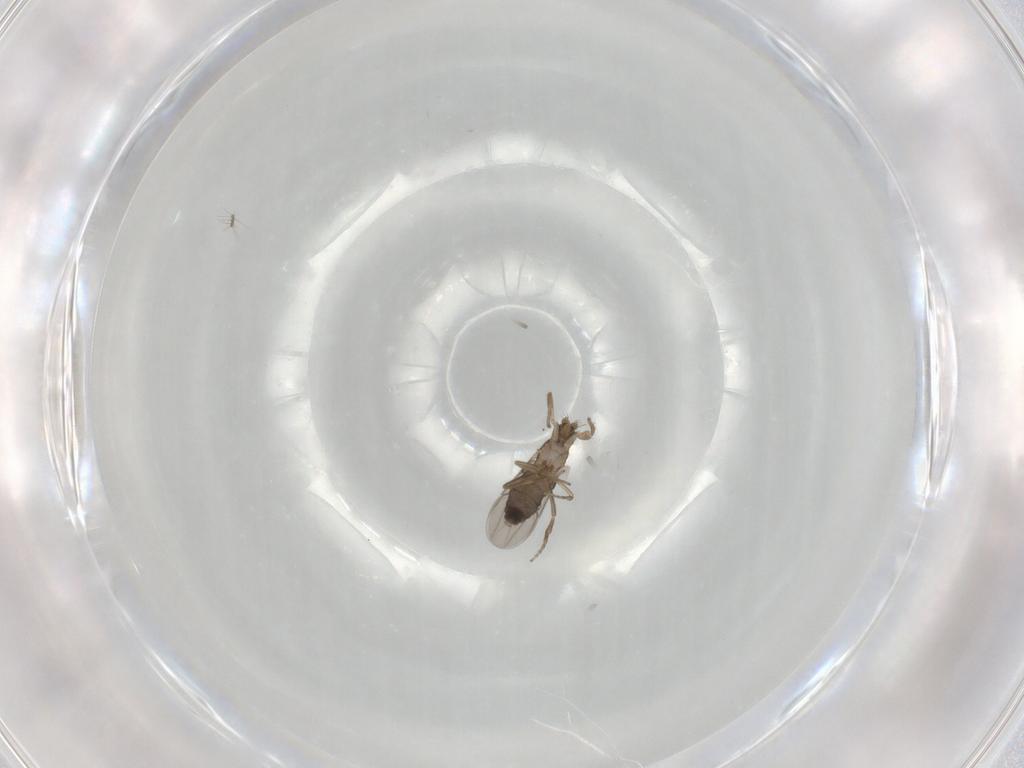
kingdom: Animalia
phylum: Arthropoda
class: Insecta
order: Diptera
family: Phoridae
